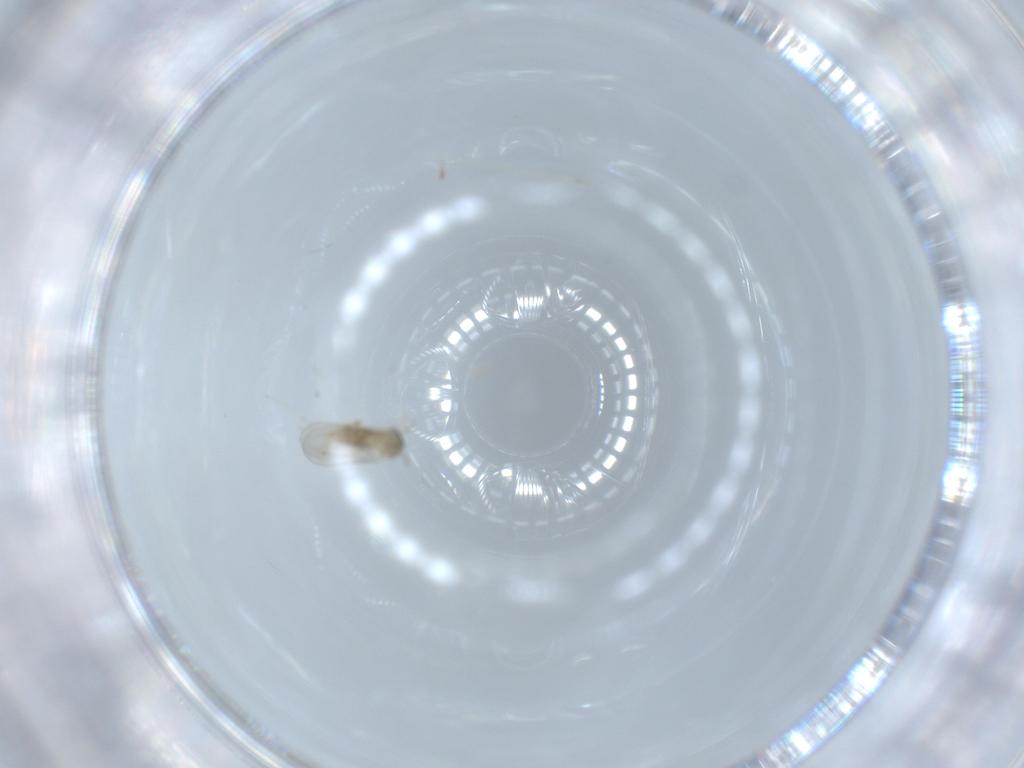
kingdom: Animalia
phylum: Arthropoda
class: Insecta
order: Diptera
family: Cecidomyiidae
